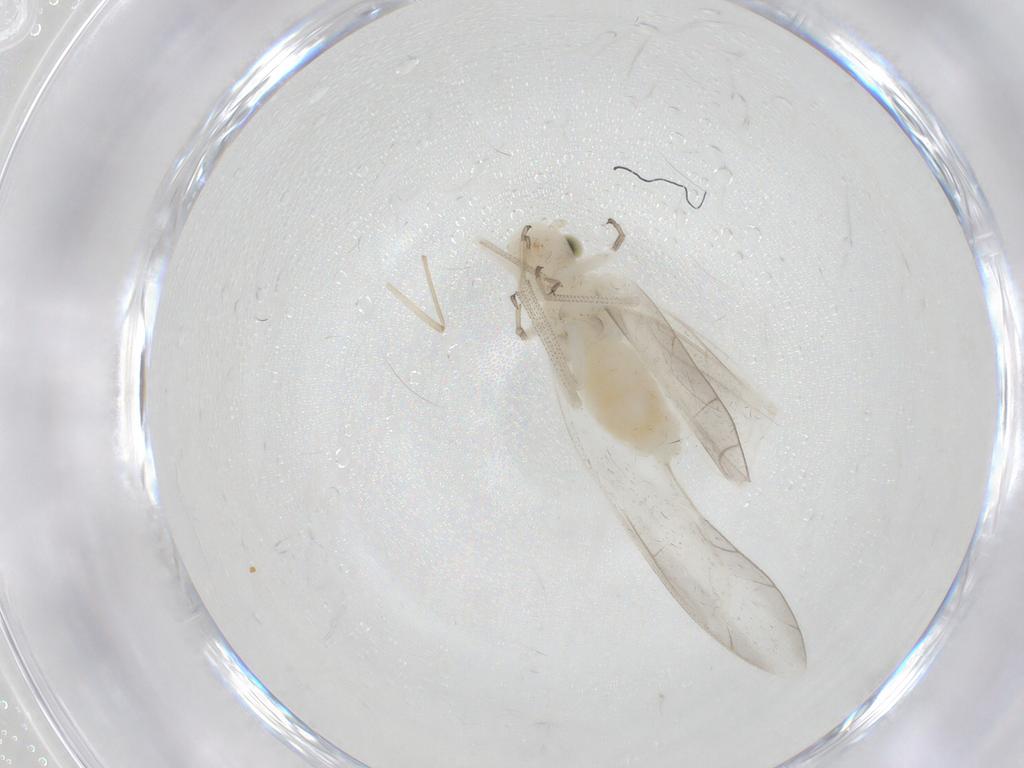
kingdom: Animalia
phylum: Arthropoda
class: Insecta
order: Psocodea
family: Caeciliusidae
